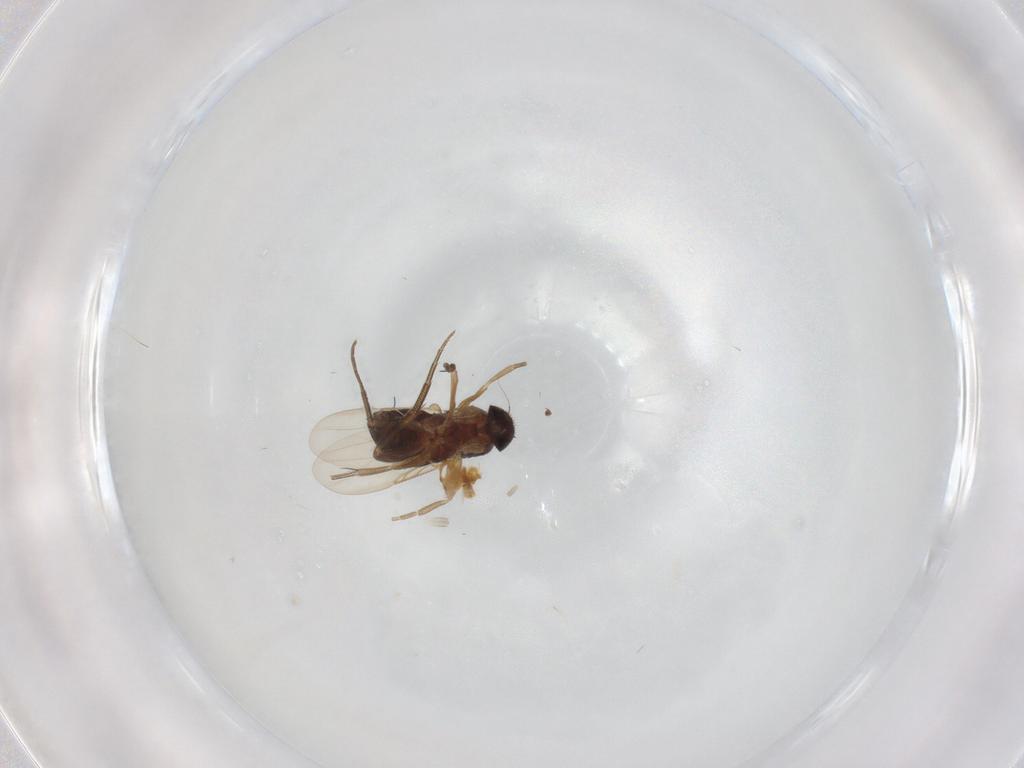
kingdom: Animalia
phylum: Arthropoda
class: Insecta
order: Diptera
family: Phoridae
